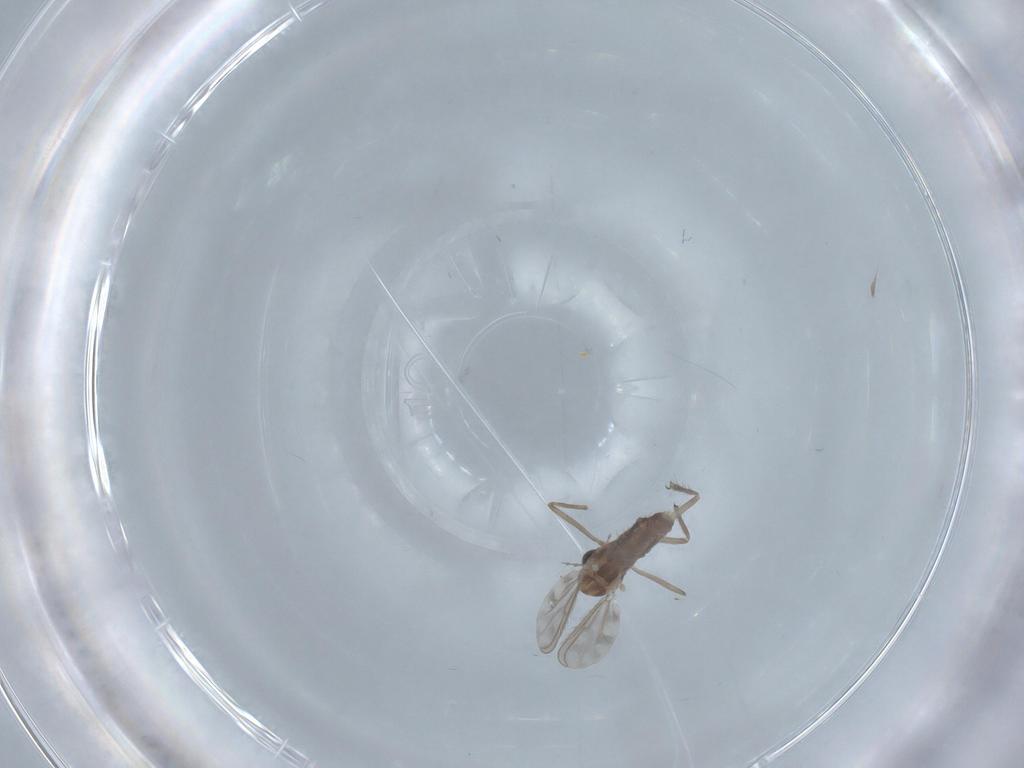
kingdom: Animalia
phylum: Arthropoda
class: Insecta
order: Diptera
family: Chironomidae
